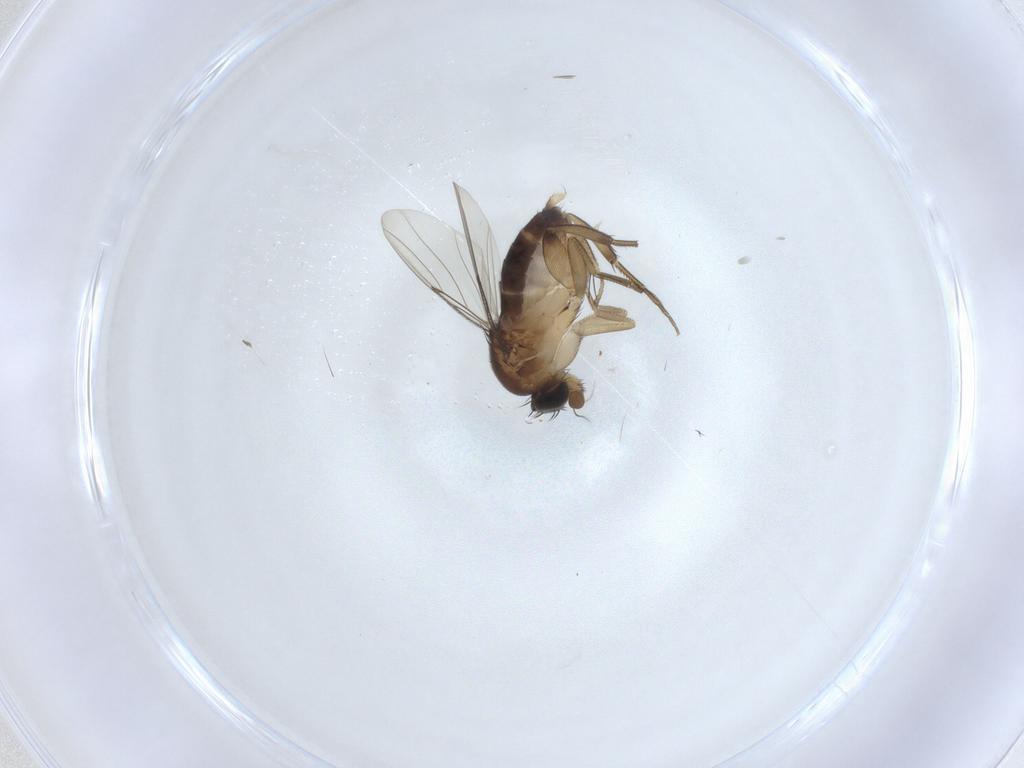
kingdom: Animalia
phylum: Arthropoda
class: Insecta
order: Diptera
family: Phoridae
